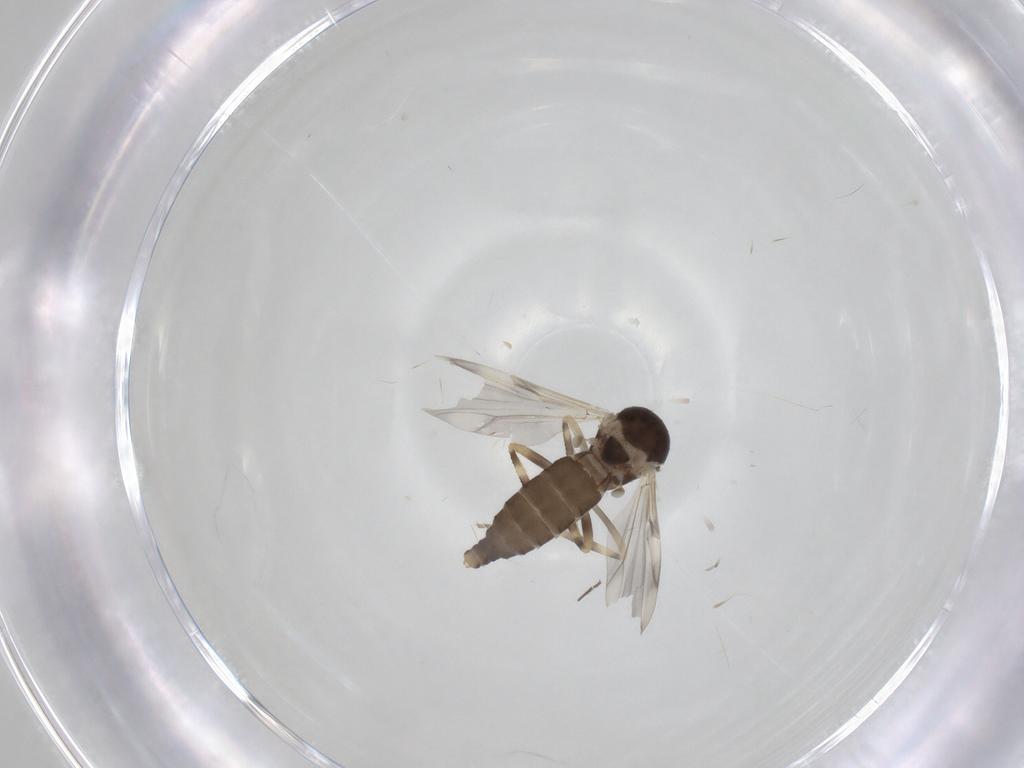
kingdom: Animalia
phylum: Arthropoda
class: Insecta
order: Diptera
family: Ceratopogonidae
